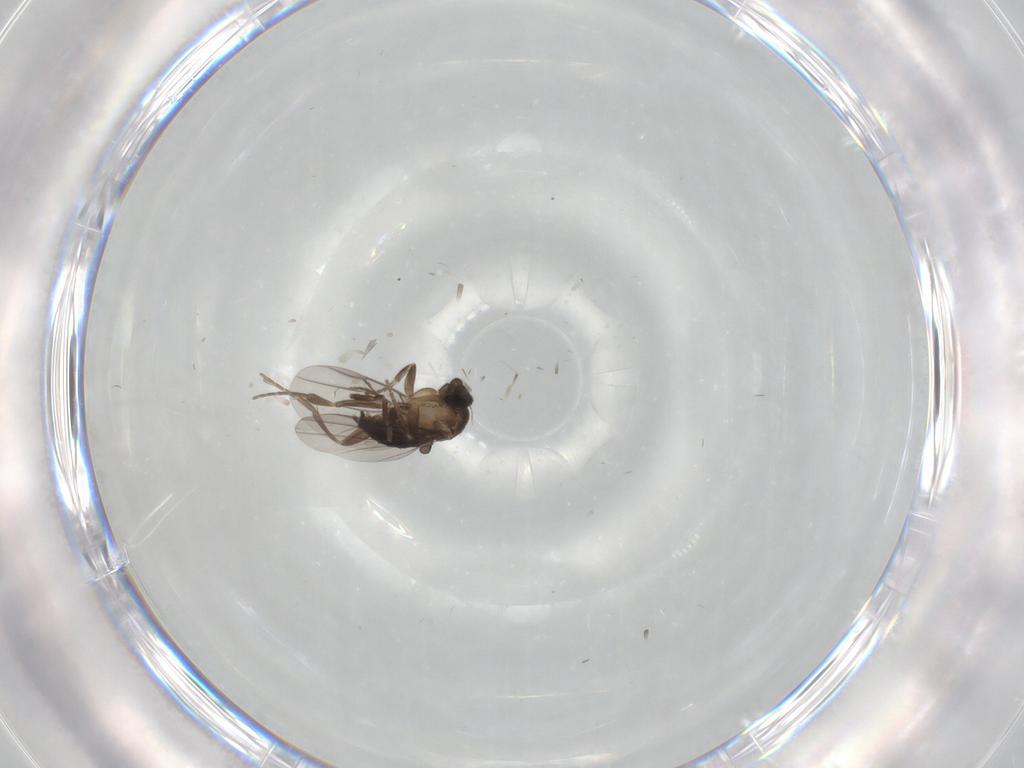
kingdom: Animalia
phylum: Arthropoda
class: Insecta
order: Diptera
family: Phoridae
